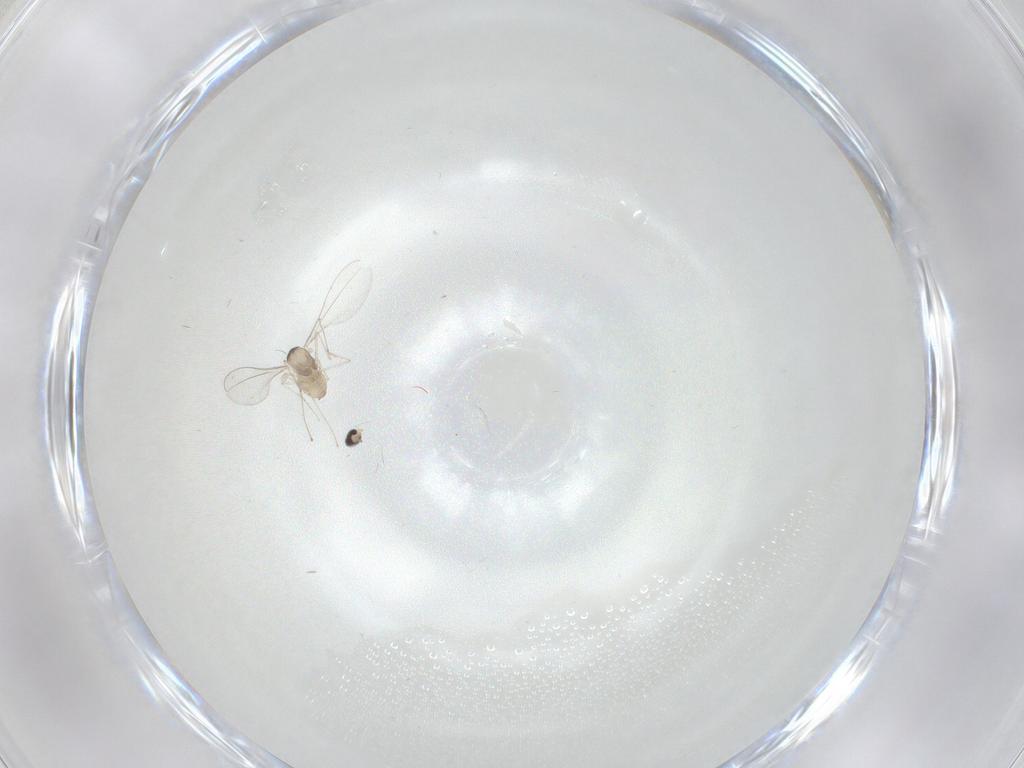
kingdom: Animalia
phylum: Arthropoda
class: Insecta
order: Diptera
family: Cecidomyiidae
